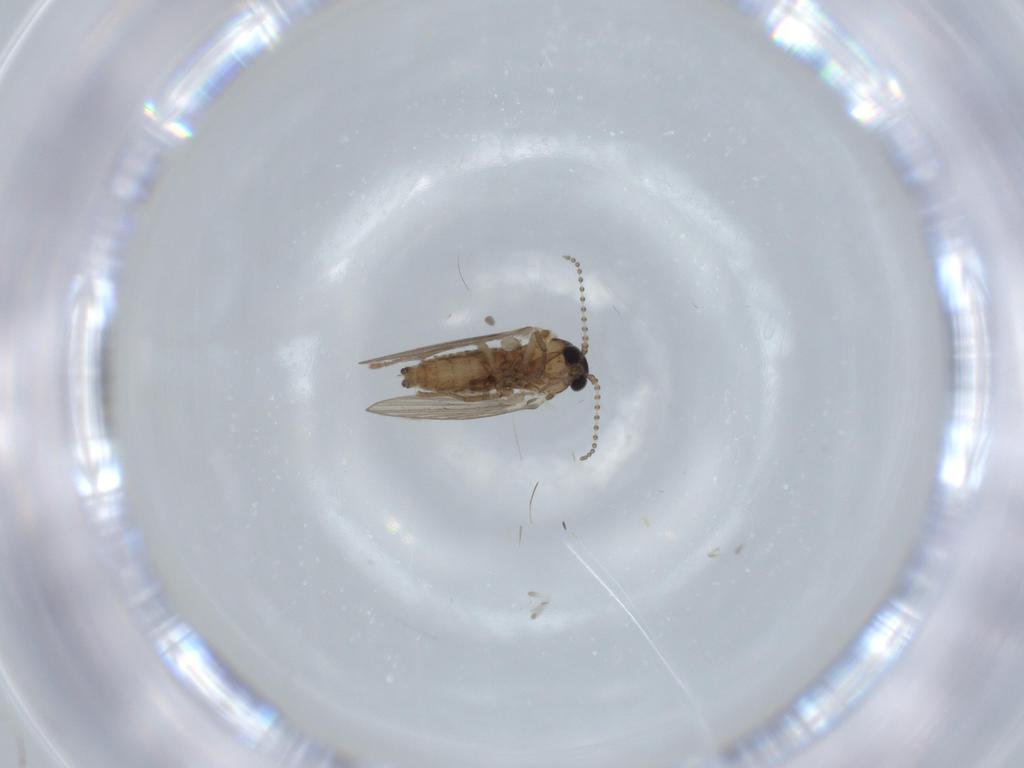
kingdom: Animalia
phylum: Arthropoda
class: Insecta
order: Diptera
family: Psychodidae
